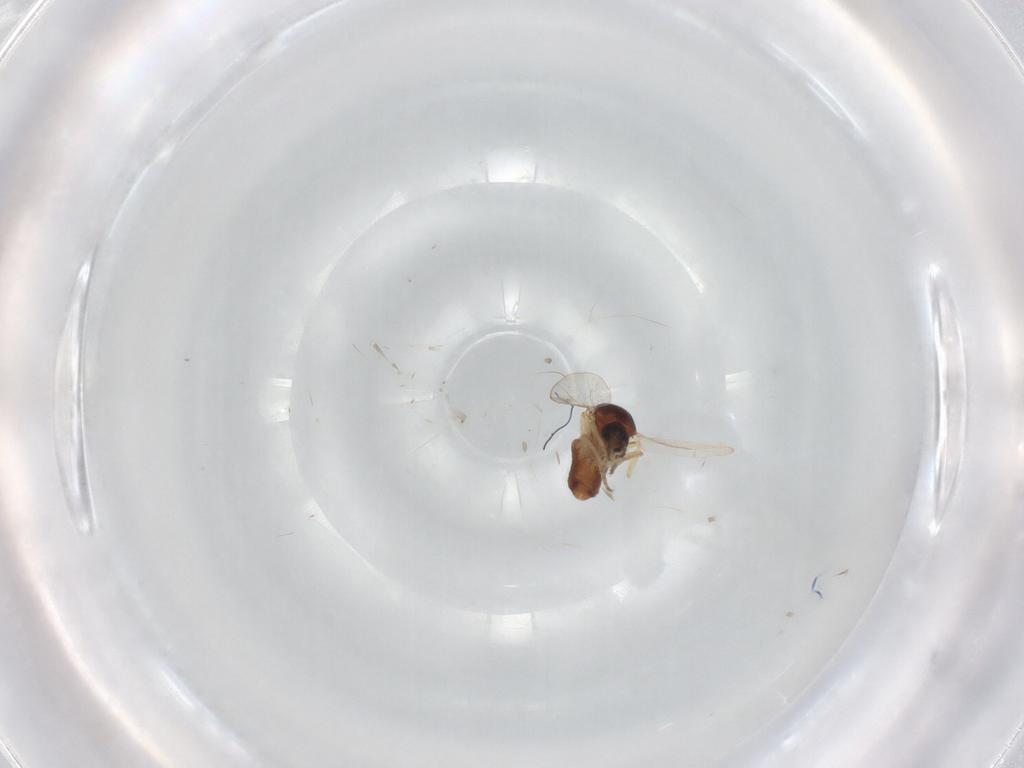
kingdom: Animalia
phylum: Arthropoda
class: Insecta
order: Diptera
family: Ceratopogonidae
